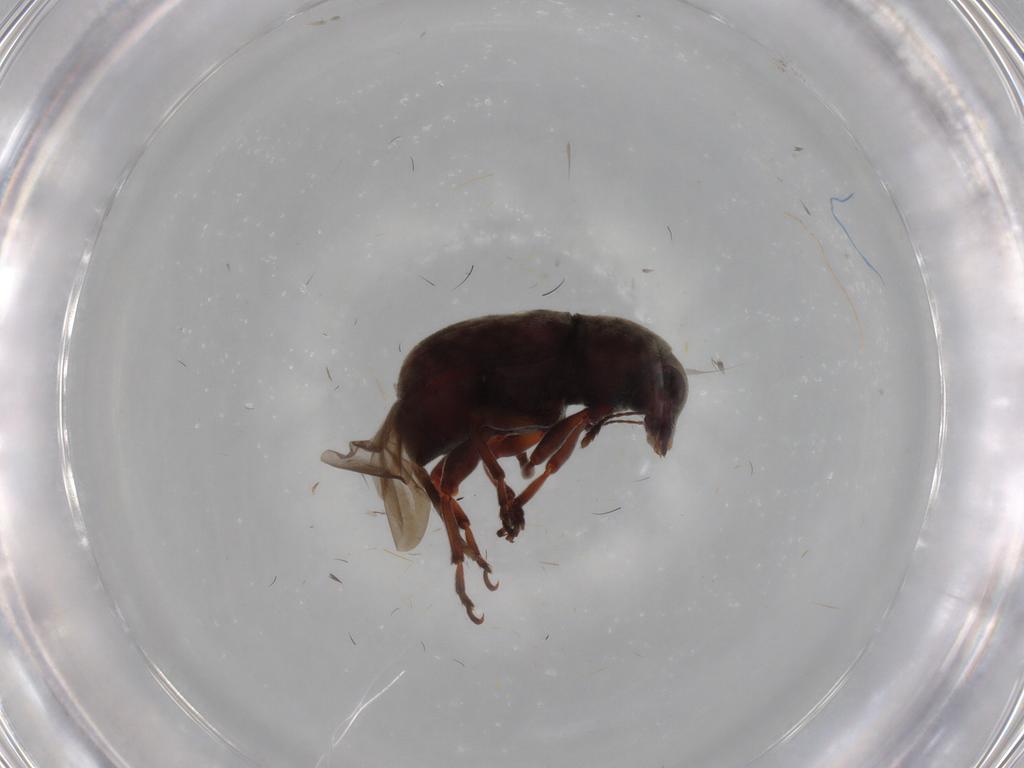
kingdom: Animalia
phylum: Arthropoda
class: Insecta
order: Coleoptera
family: Anthribidae
